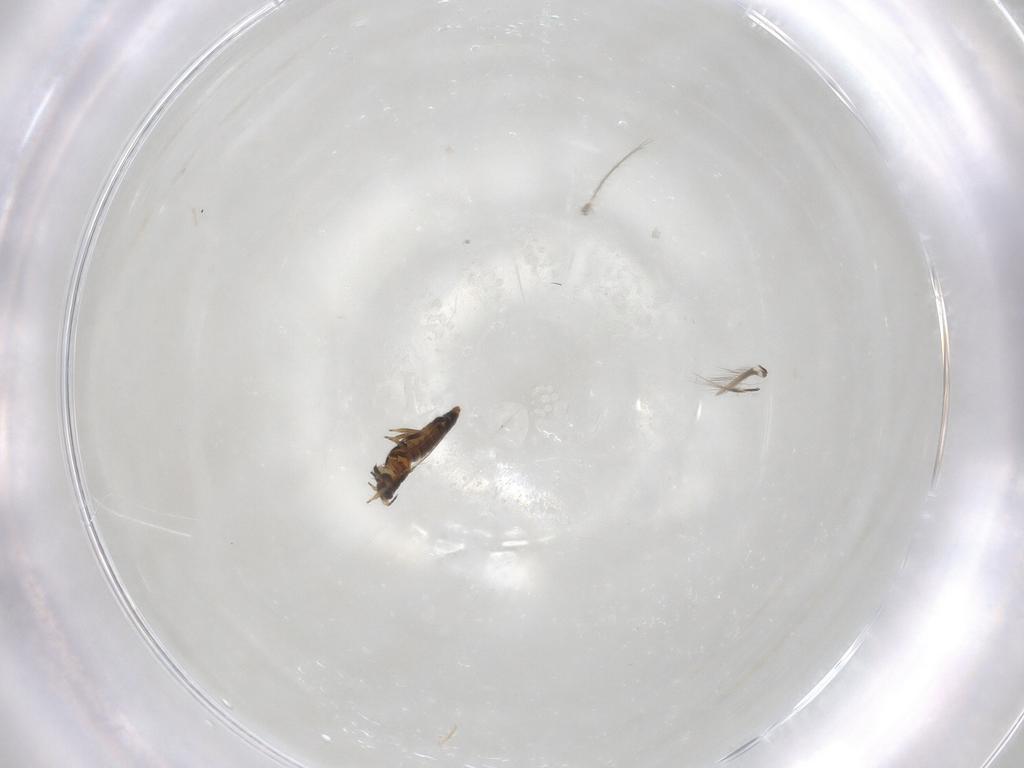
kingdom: Animalia
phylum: Arthropoda
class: Insecta
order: Thysanoptera
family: Thripidae
